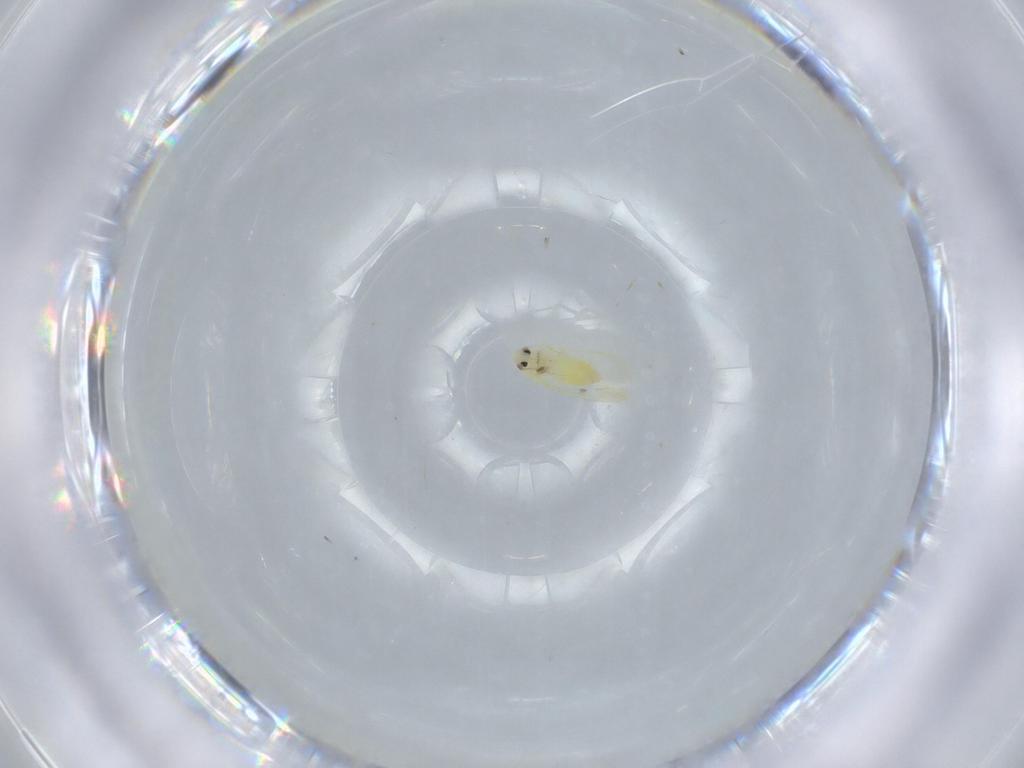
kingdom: Animalia
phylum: Arthropoda
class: Insecta
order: Hemiptera
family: Aleyrodidae
